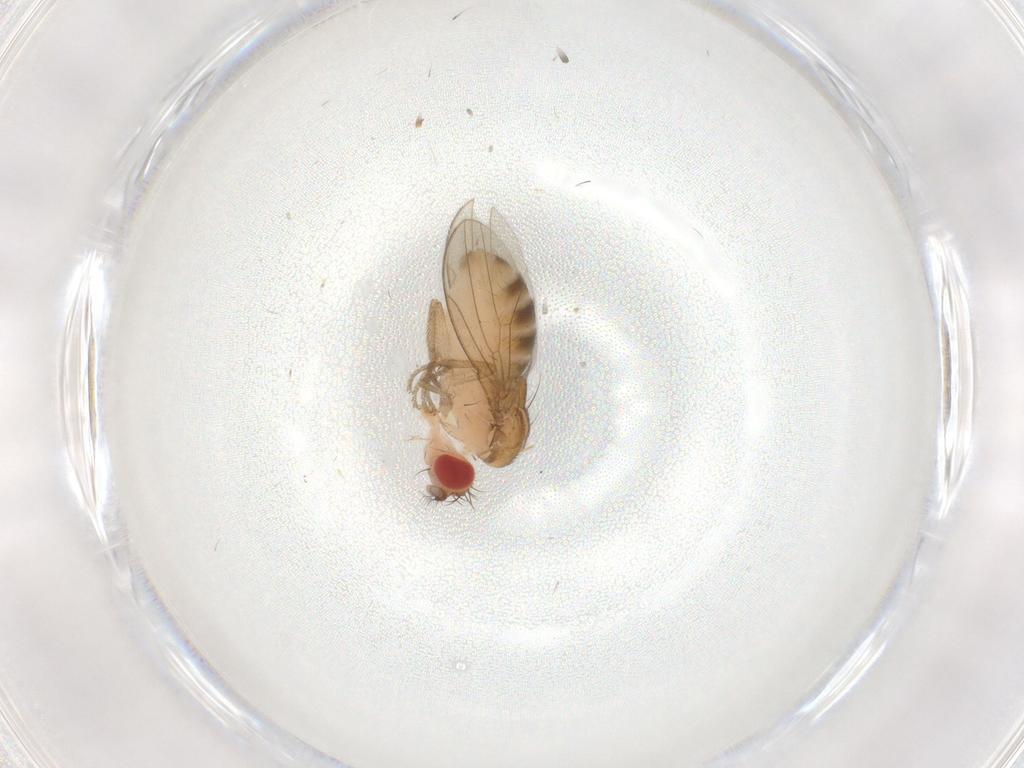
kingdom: Animalia
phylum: Arthropoda
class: Insecta
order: Diptera
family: Drosophilidae
